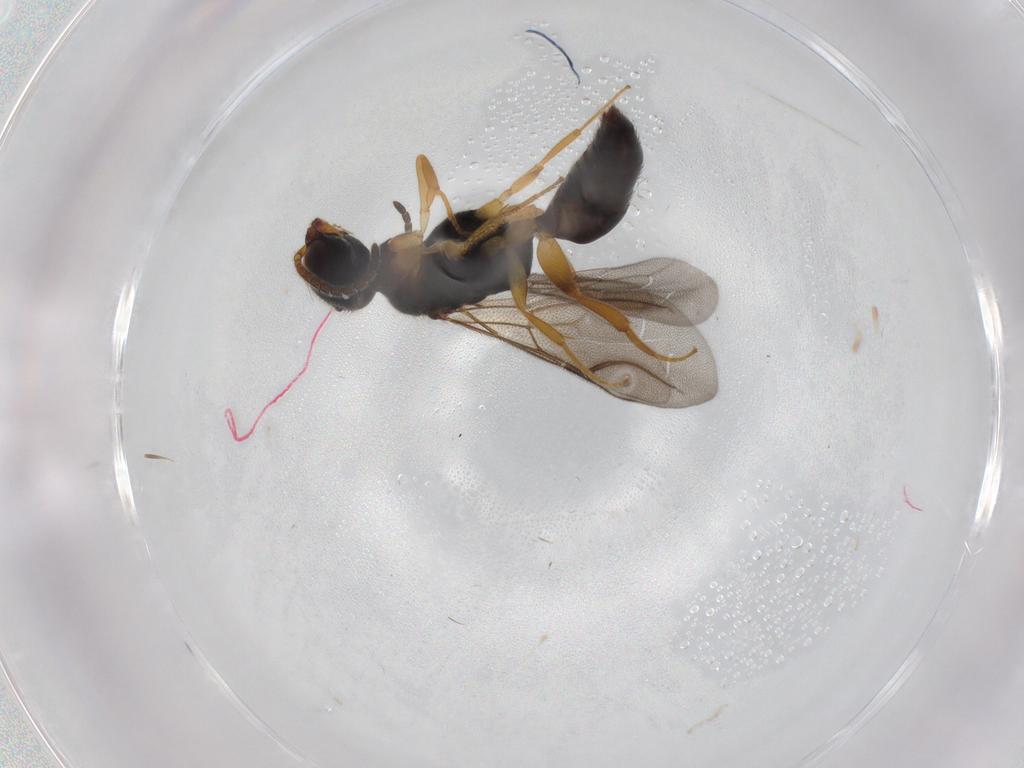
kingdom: Animalia
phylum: Arthropoda
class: Insecta
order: Hymenoptera
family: Bethylidae
